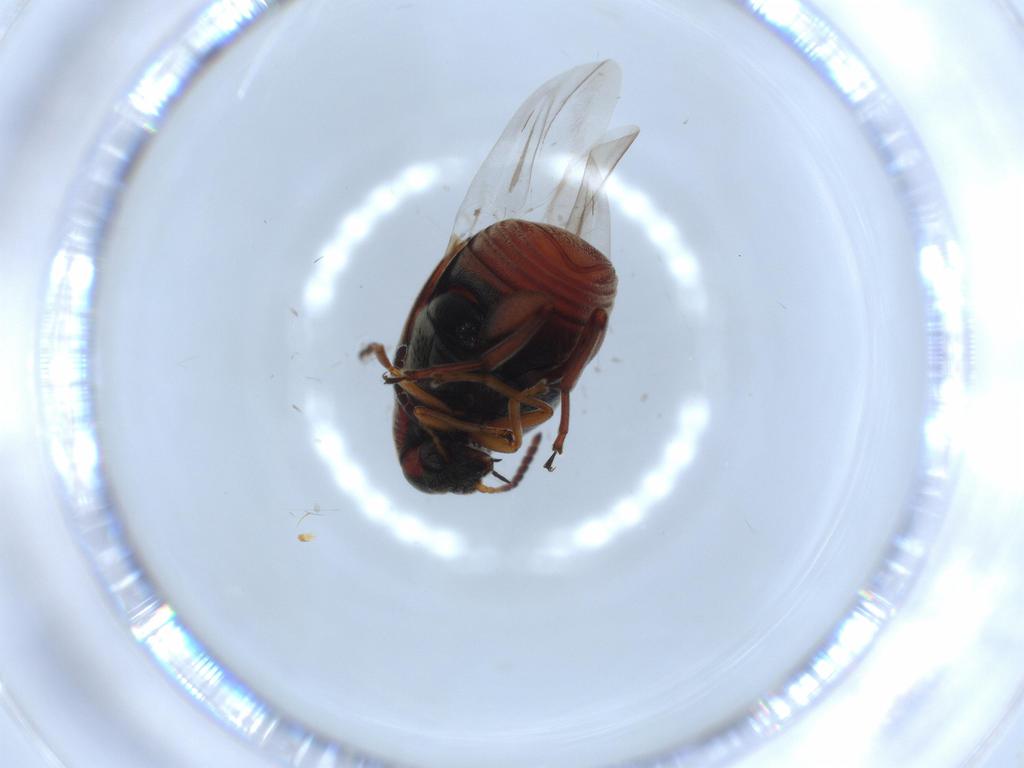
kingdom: Animalia
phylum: Arthropoda
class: Insecta
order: Coleoptera
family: Chrysomelidae
